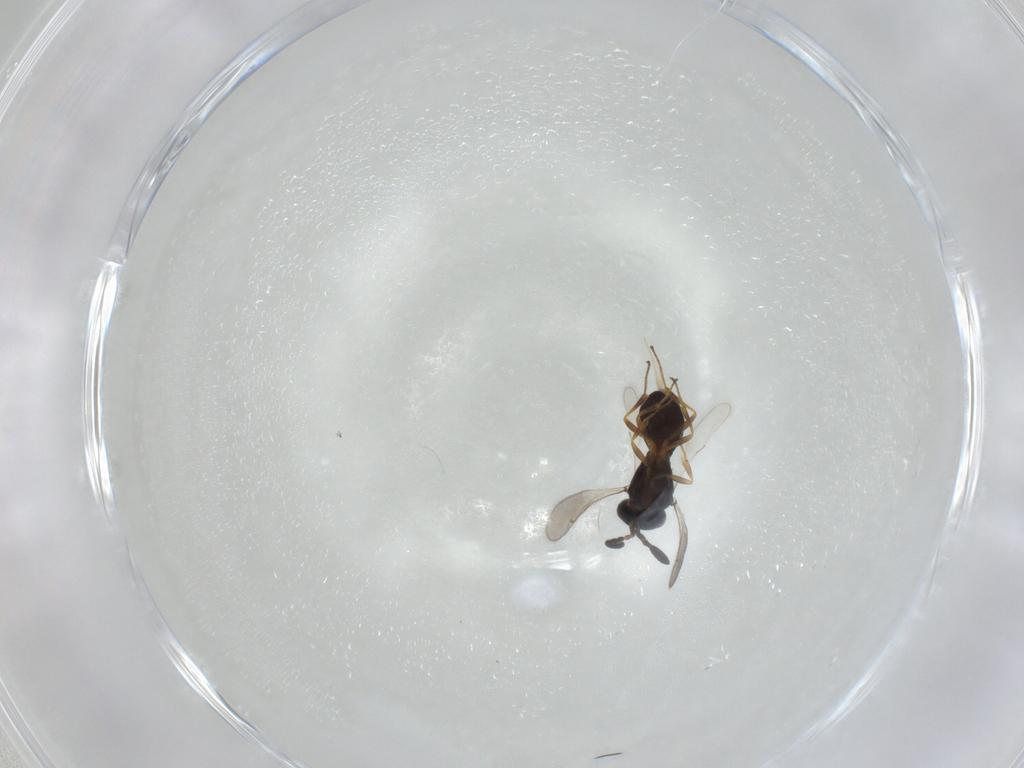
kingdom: Animalia
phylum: Arthropoda
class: Insecta
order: Hymenoptera
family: Scelionidae
